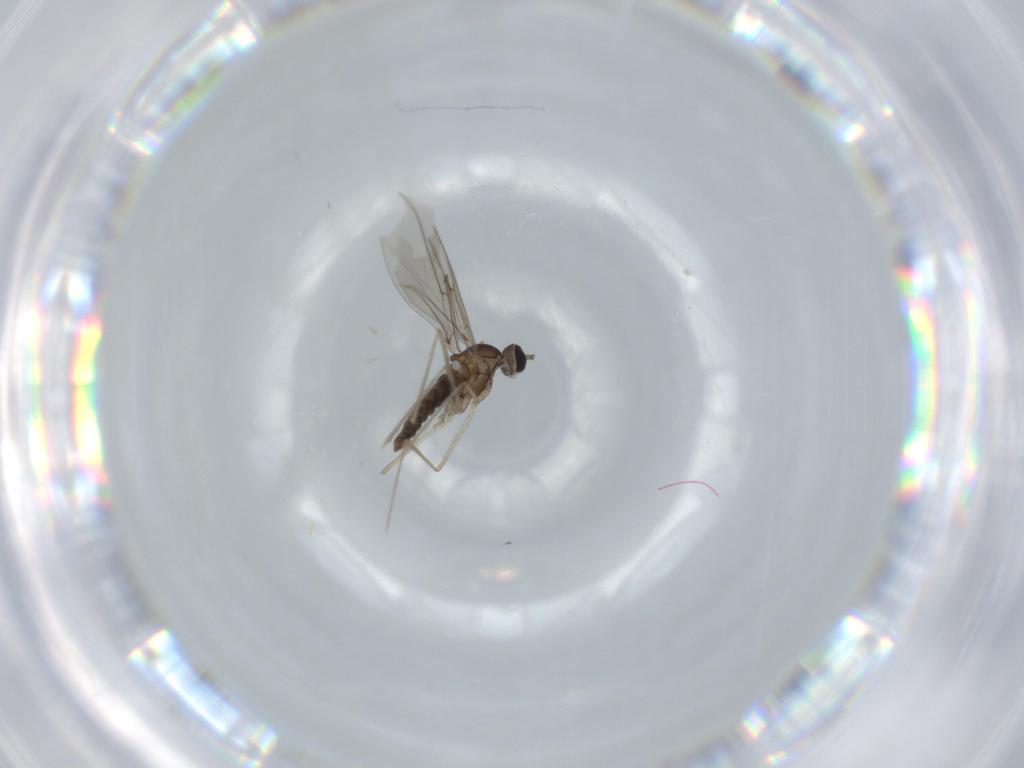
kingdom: Animalia
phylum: Arthropoda
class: Insecta
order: Diptera
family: Cecidomyiidae
